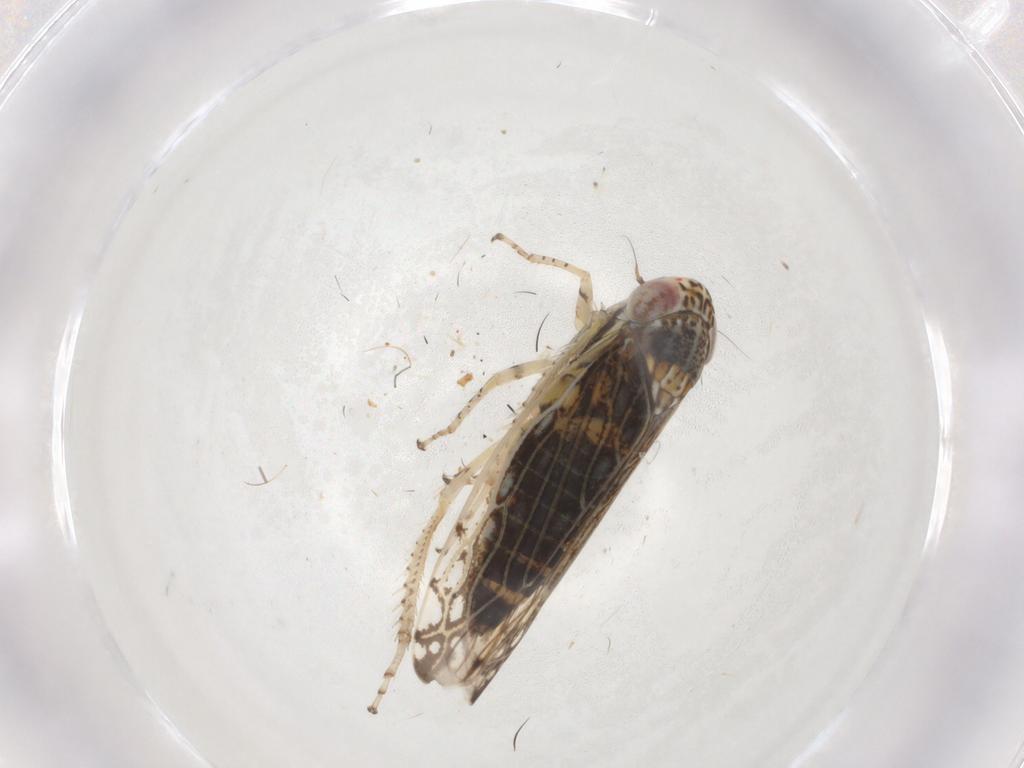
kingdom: Animalia
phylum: Arthropoda
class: Insecta
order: Hemiptera
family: Cicadellidae
